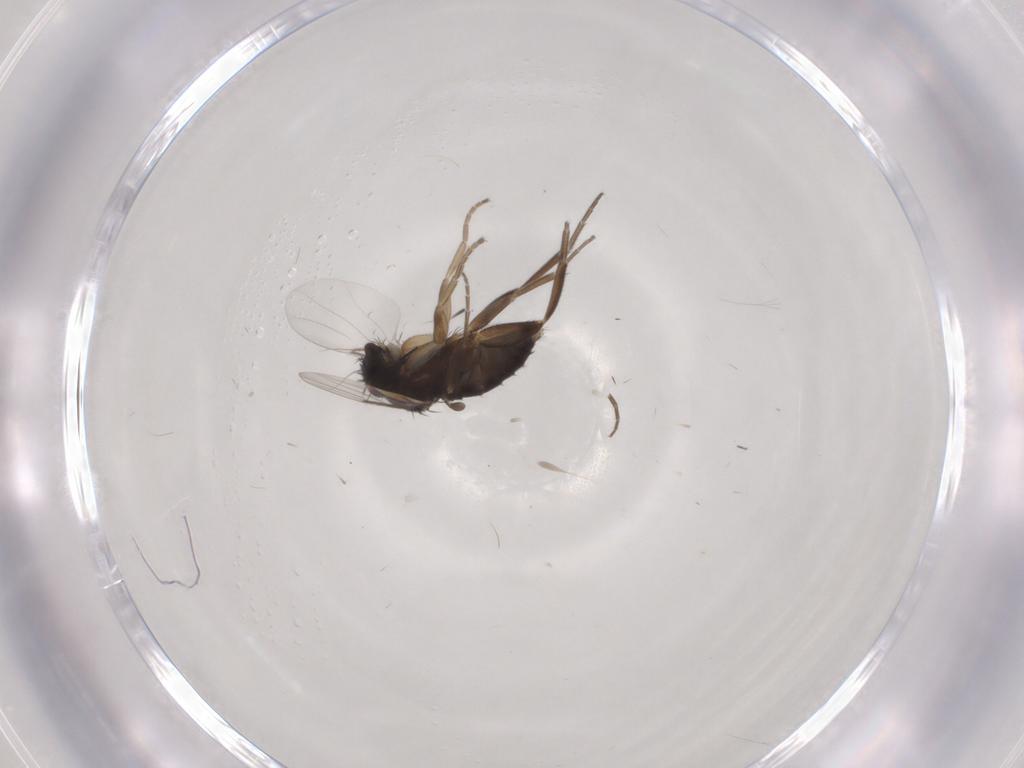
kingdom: Animalia
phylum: Arthropoda
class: Insecta
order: Diptera
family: Phoridae
